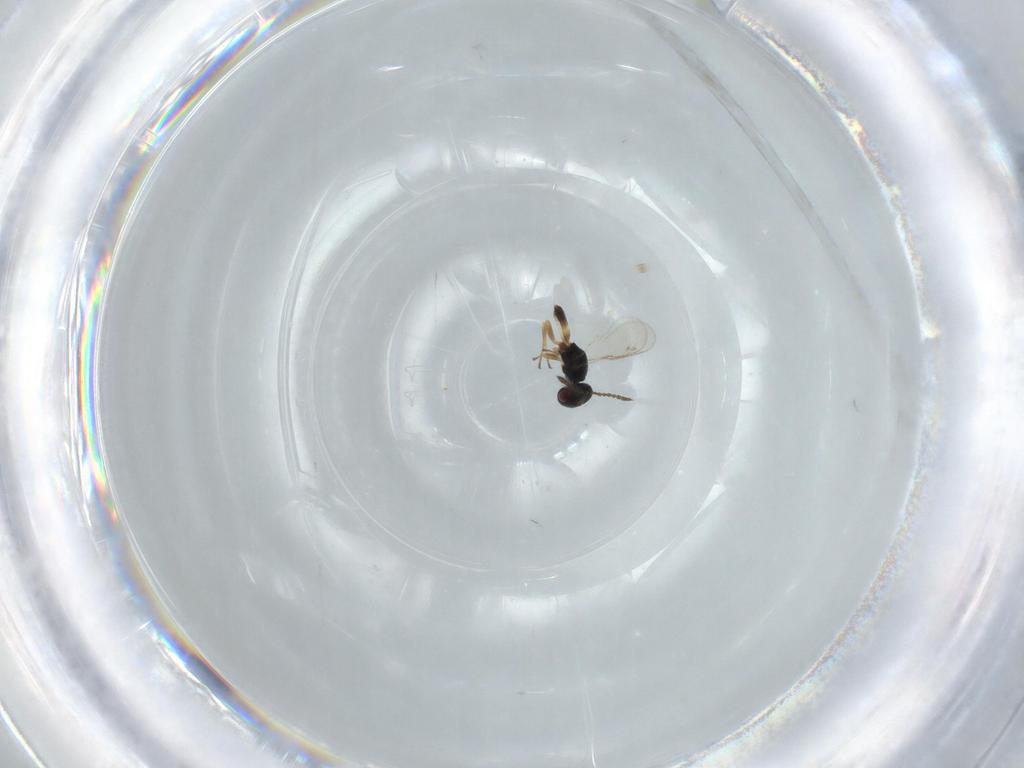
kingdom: Animalia
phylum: Arthropoda
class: Insecta
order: Hymenoptera
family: Pteromalidae
